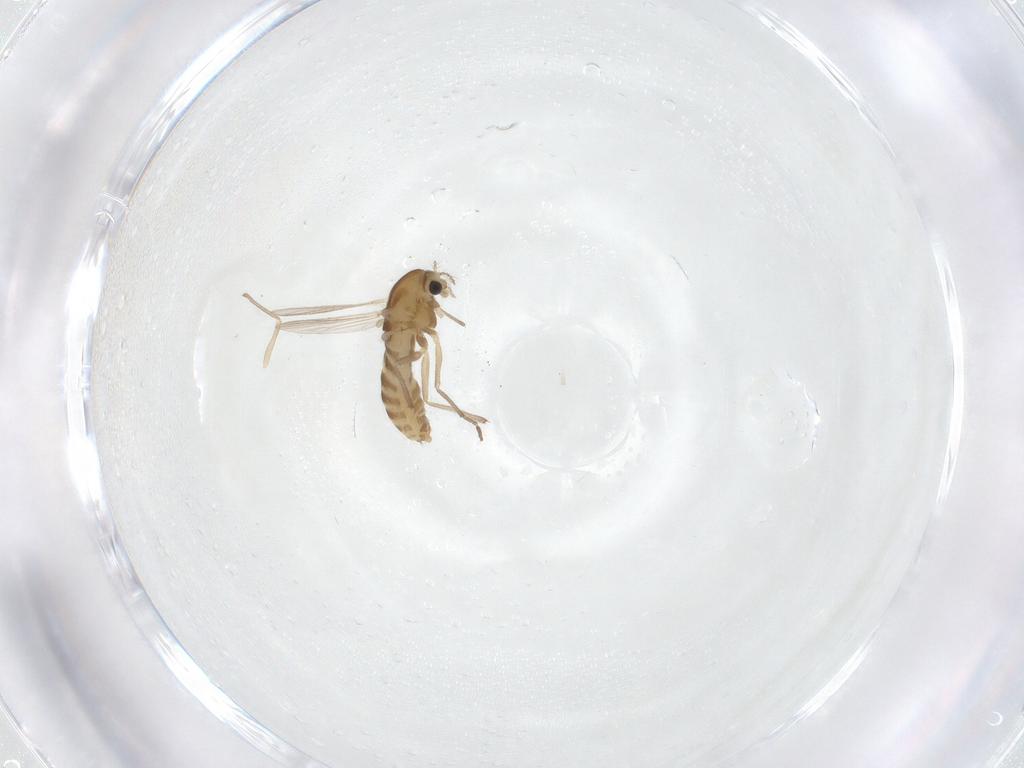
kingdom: Animalia
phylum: Arthropoda
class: Insecta
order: Diptera
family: Chironomidae
